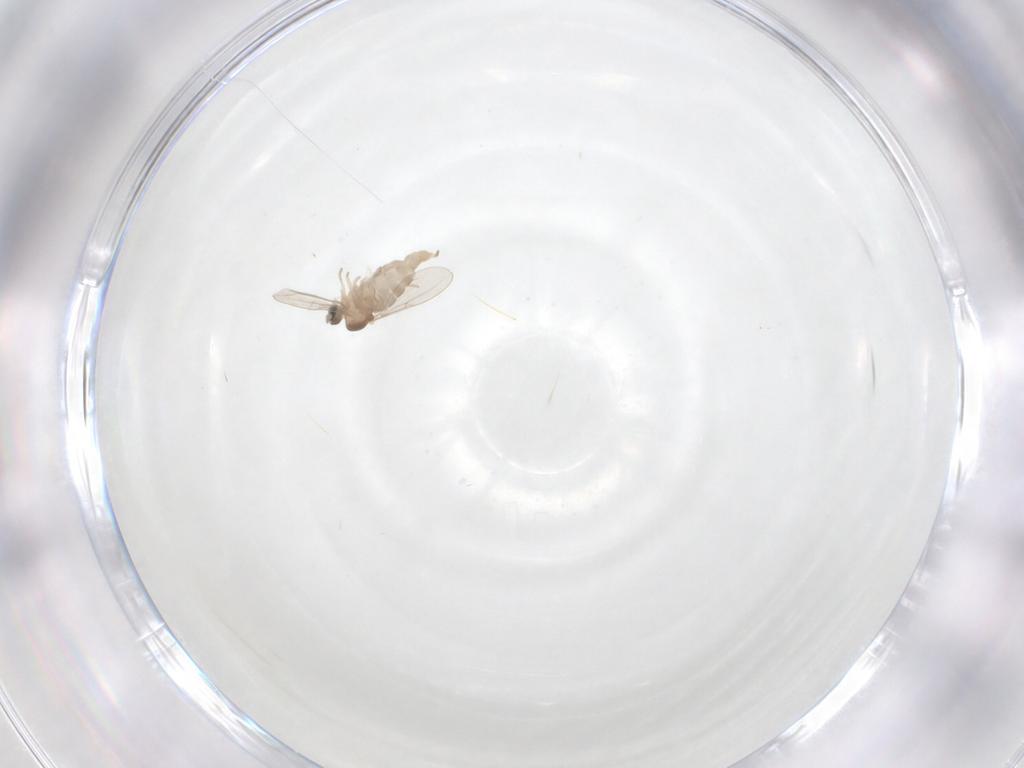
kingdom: Animalia
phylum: Arthropoda
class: Insecta
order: Diptera
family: Cecidomyiidae
